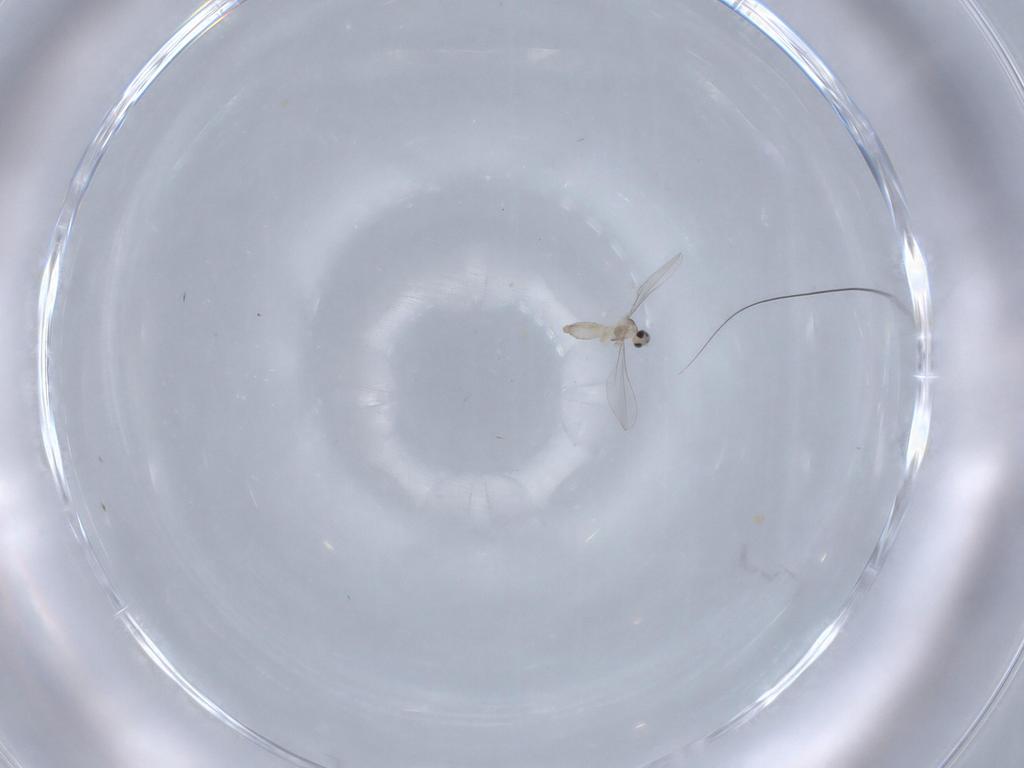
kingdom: Animalia
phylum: Arthropoda
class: Insecta
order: Diptera
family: Cecidomyiidae
